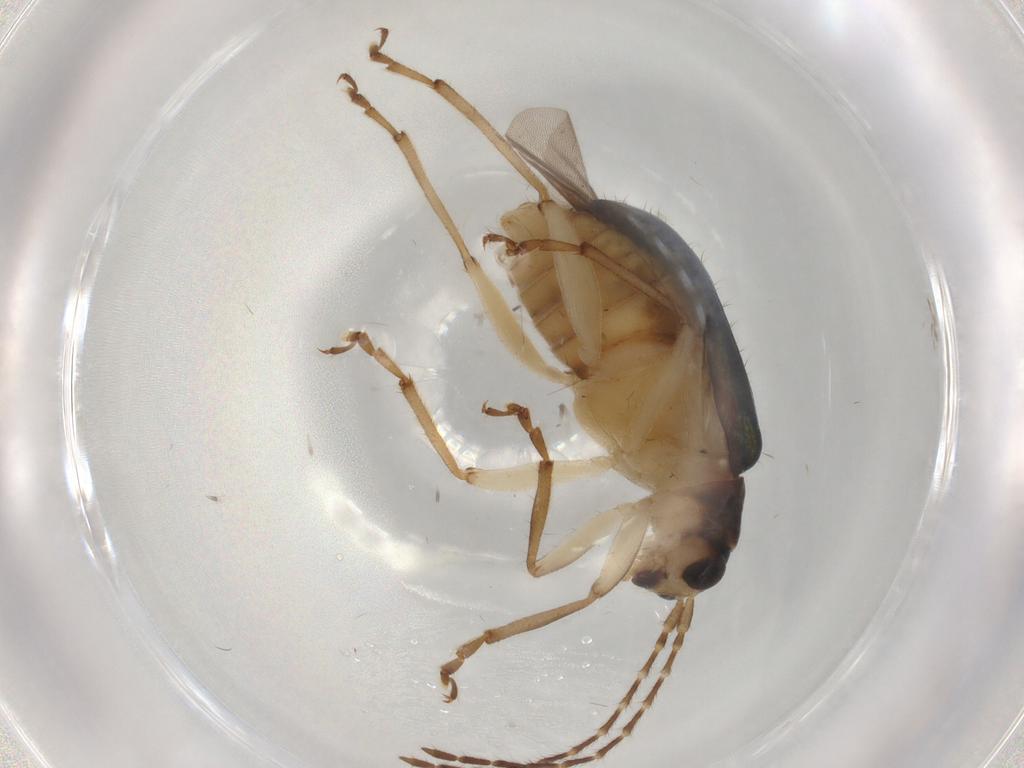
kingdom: Animalia
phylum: Arthropoda
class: Insecta
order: Coleoptera
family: Chrysomelidae
